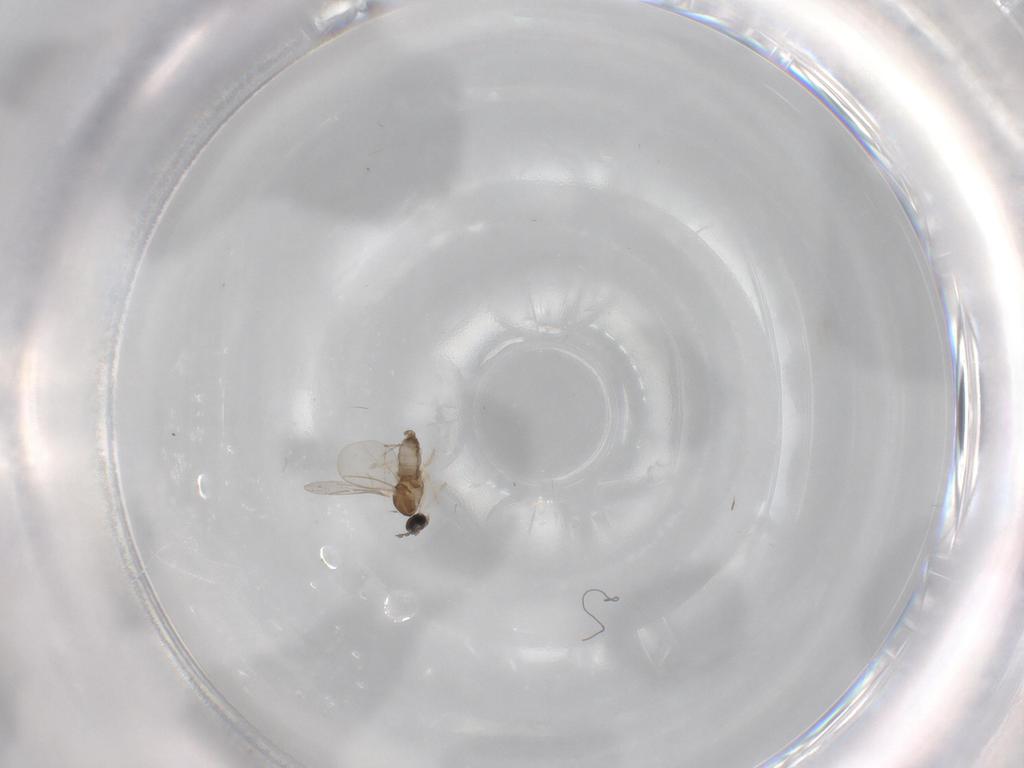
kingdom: Animalia
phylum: Arthropoda
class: Insecta
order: Diptera
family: Cecidomyiidae
